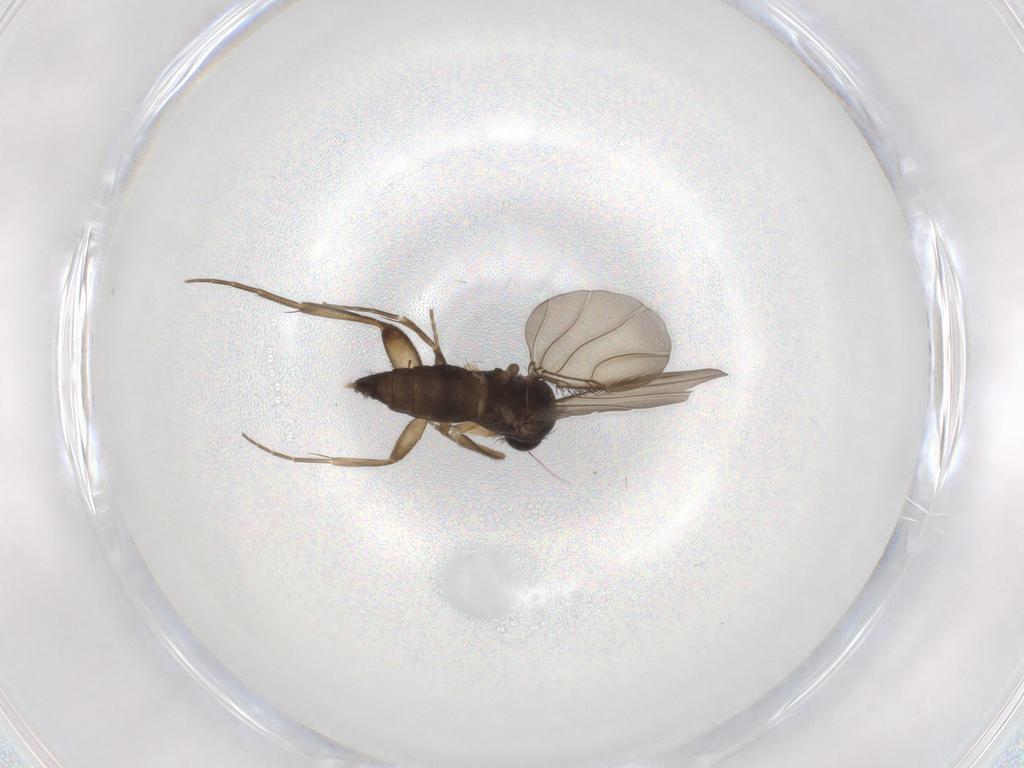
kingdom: Animalia
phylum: Arthropoda
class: Insecta
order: Diptera
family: Phoridae
